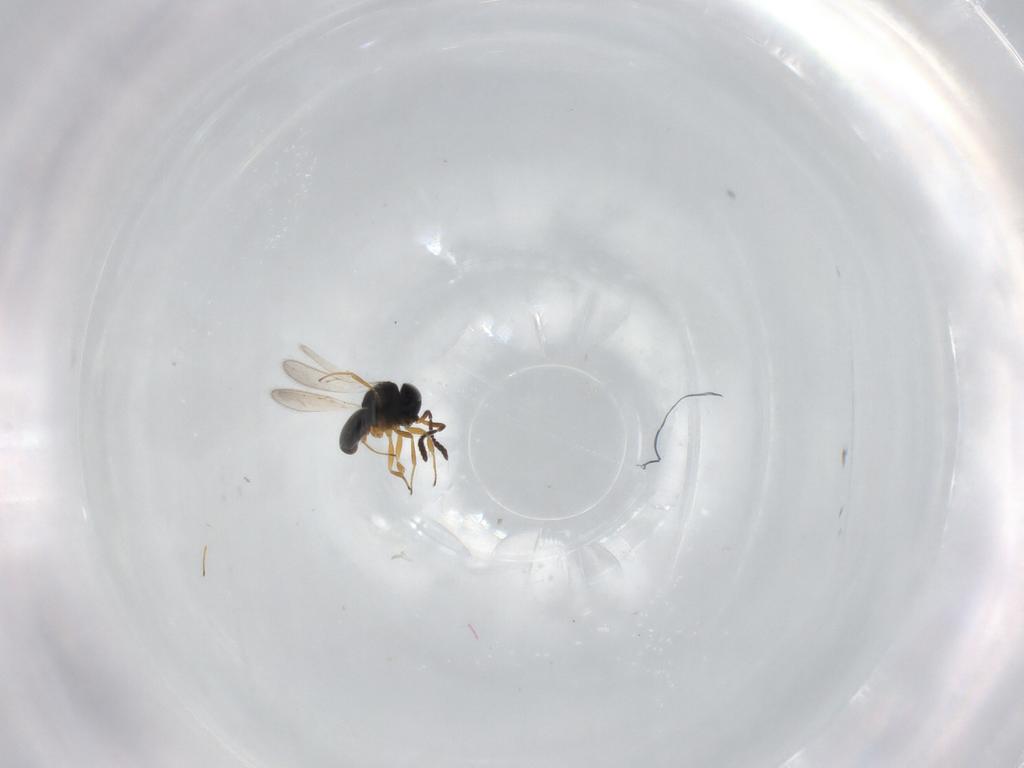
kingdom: Animalia
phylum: Arthropoda
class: Insecta
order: Hymenoptera
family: Scelionidae
